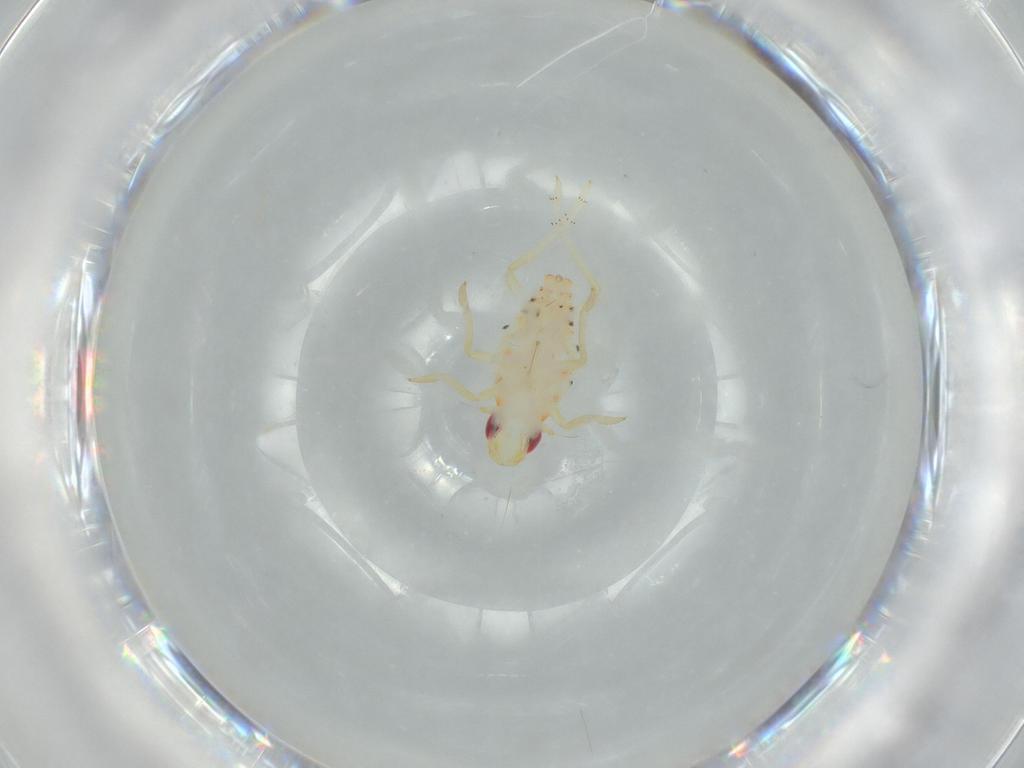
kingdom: Animalia
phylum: Arthropoda
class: Insecta
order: Hemiptera
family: Tropiduchidae
